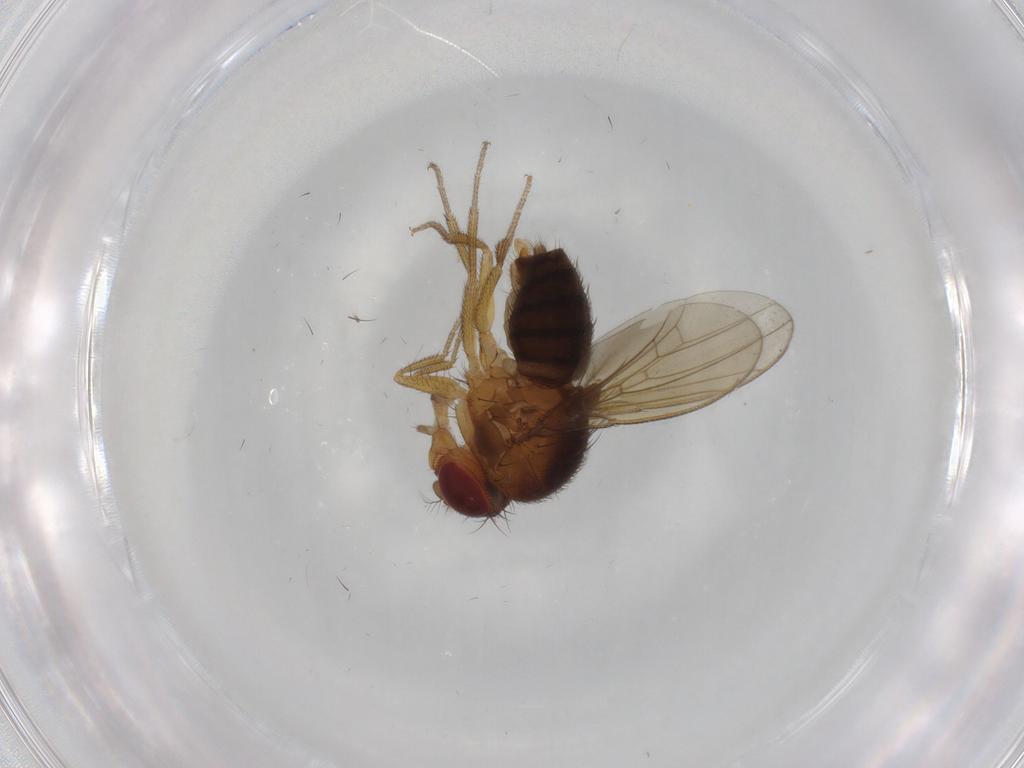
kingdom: Animalia
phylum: Arthropoda
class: Insecta
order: Diptera
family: Drosophilidae
